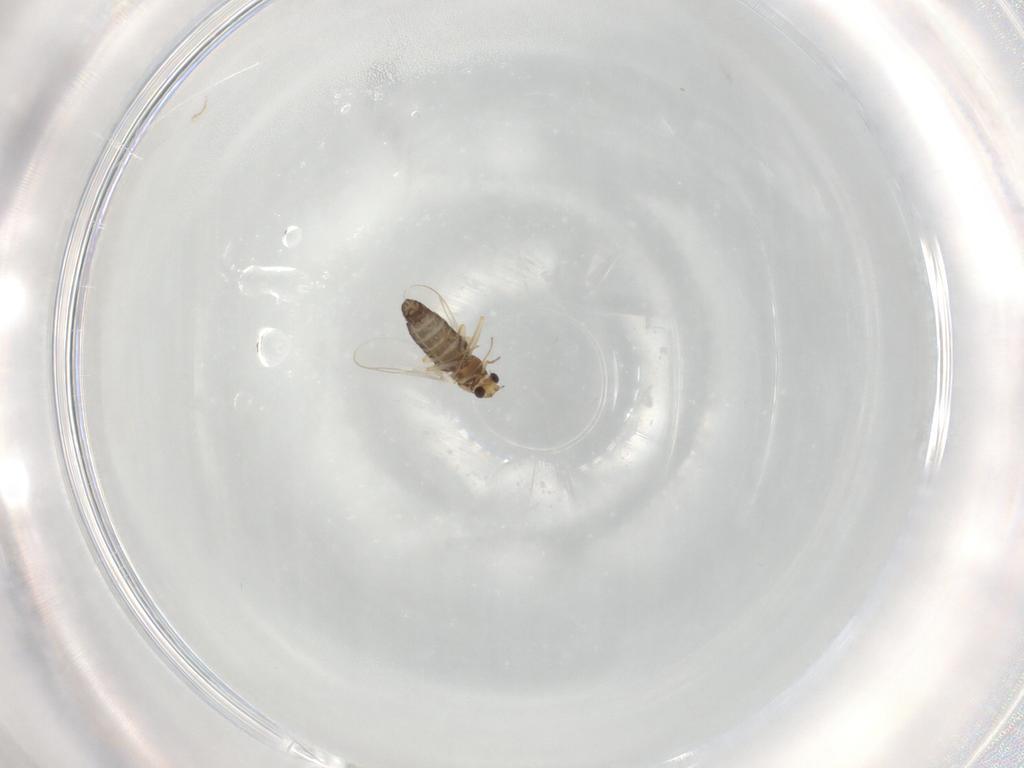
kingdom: Animalia
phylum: Arthropoda
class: Insecta
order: Diptera
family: Chironomidae
